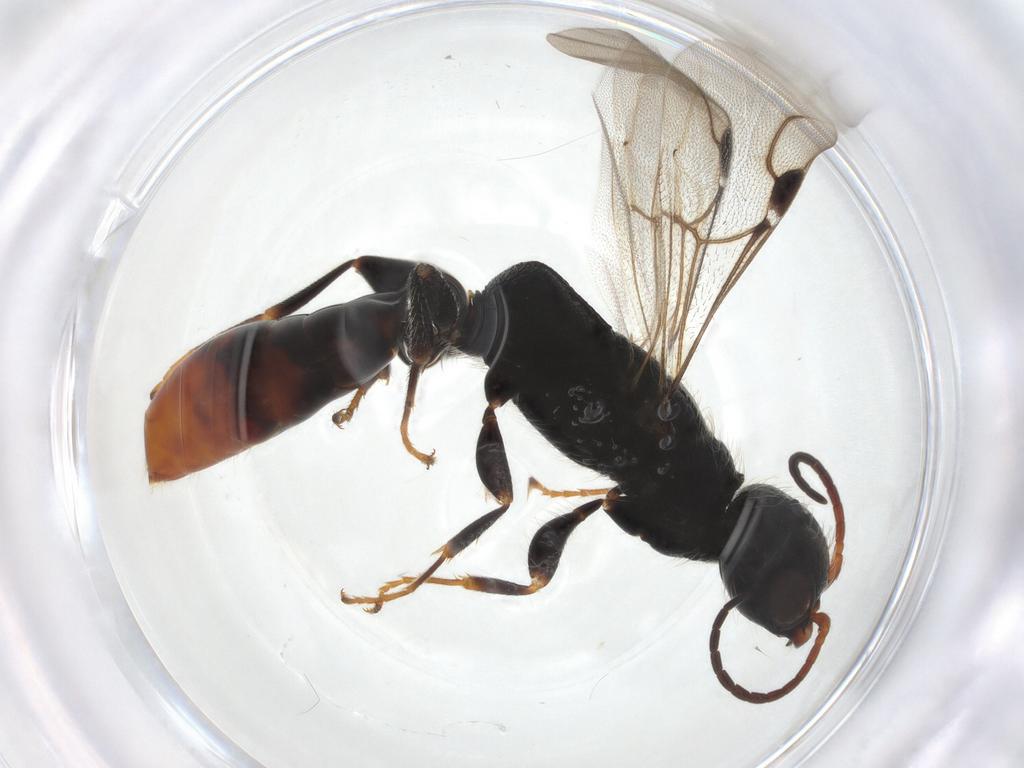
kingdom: Animalia
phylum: Arthropoda
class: Insecta
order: Hymenoptera
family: Bethylidae
